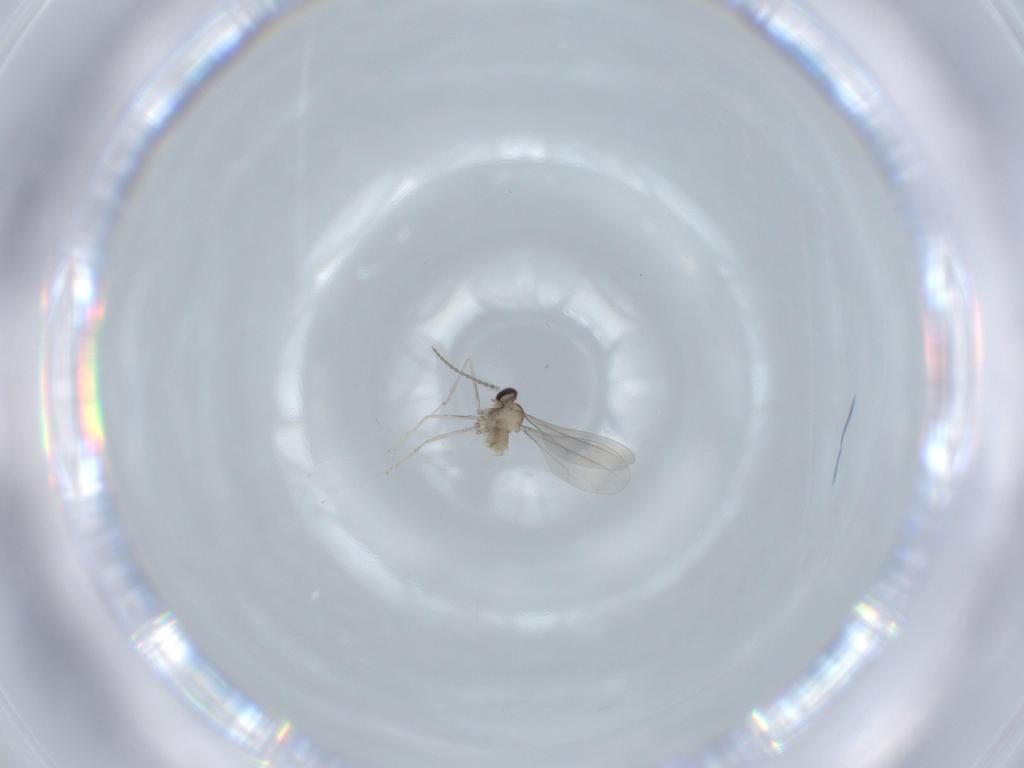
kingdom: Animalia
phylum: Arthropoda
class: Insecta
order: Diptera
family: Cecidomyiidae
